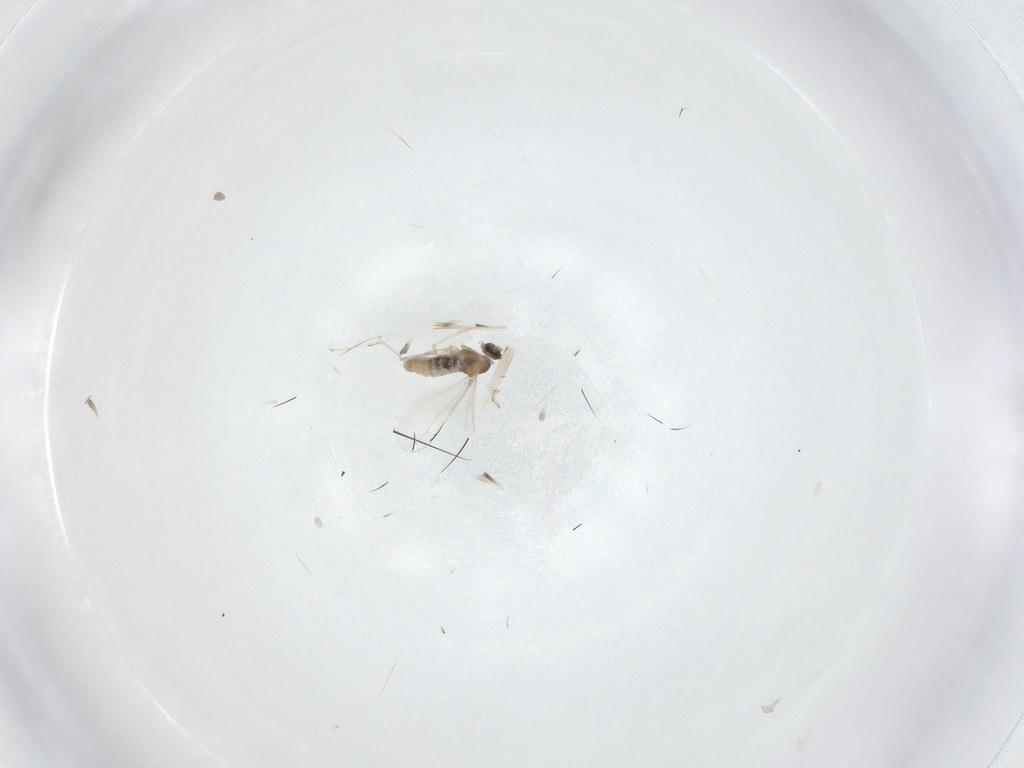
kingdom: Animalia
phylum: Arthropoda
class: Insecta
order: Diptera
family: Cecidomyiidae
